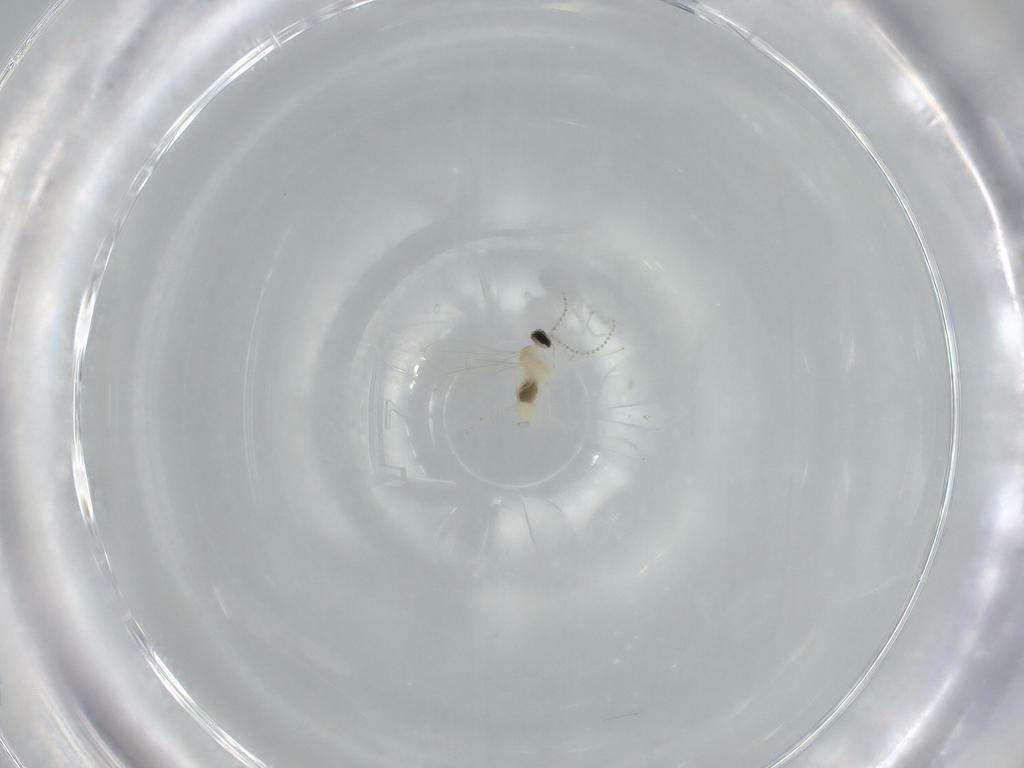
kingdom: Animalia
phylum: Arthropoda
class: Insecta
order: Diptera
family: Cecidomyiidae
